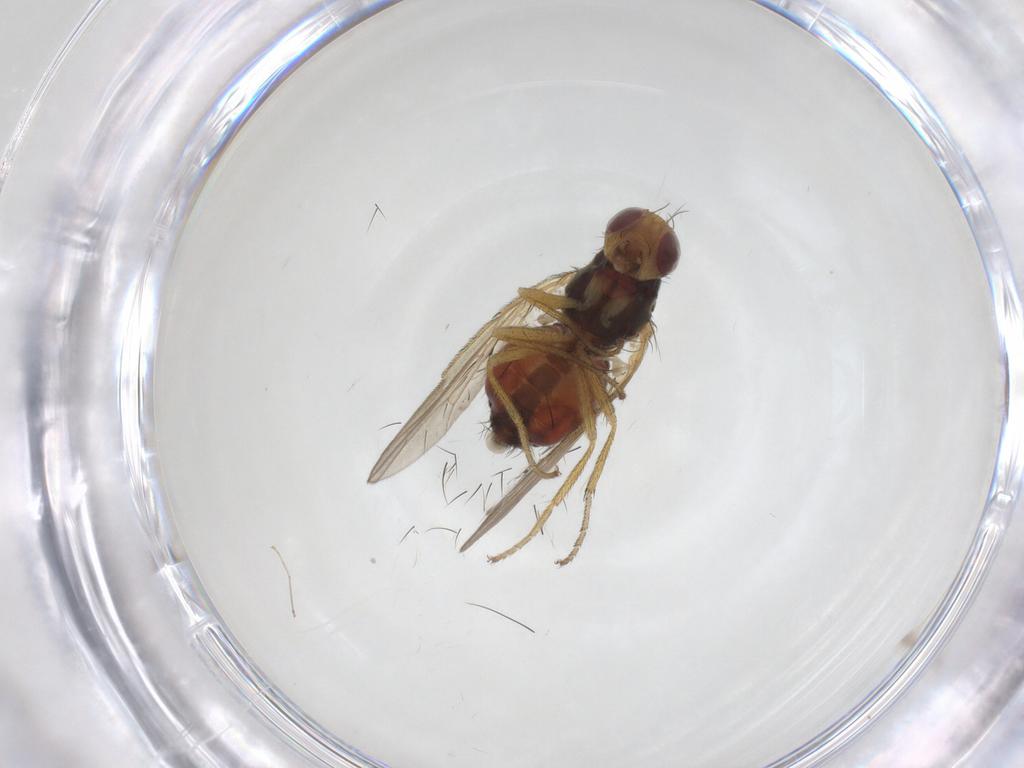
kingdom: Animalia
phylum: Arthropoda
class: Insecta
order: Diptera
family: Heleomyzidae
